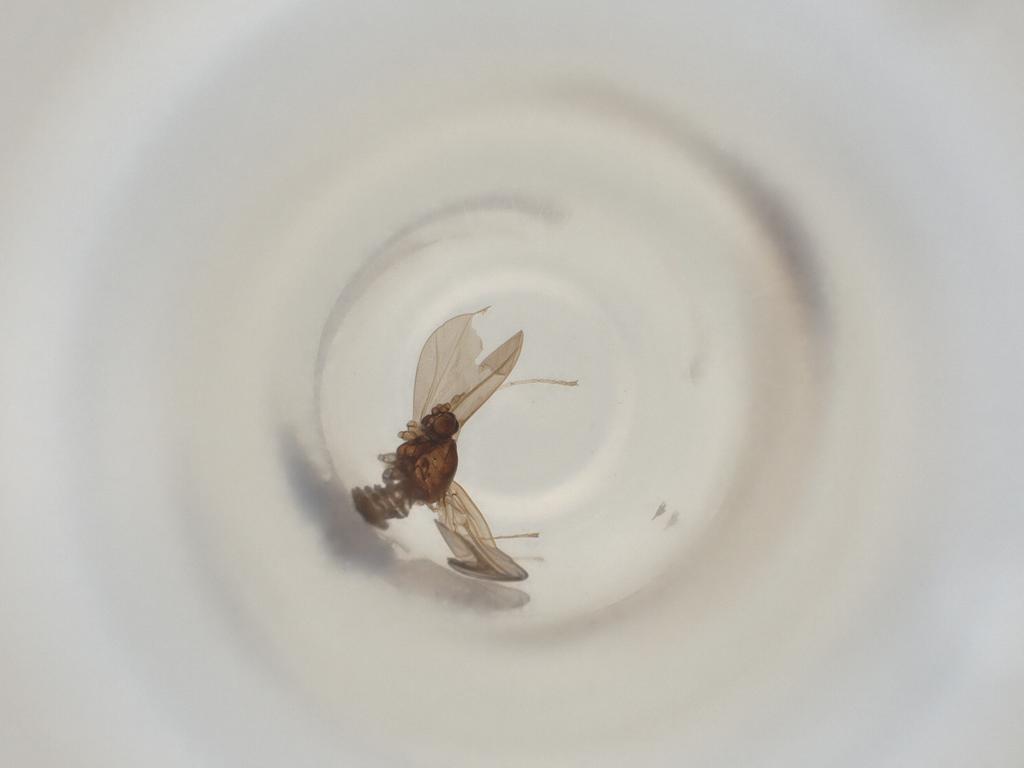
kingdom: Animalia
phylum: Arthropoda
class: Insecta
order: Diptera
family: Cecidomyiidae
